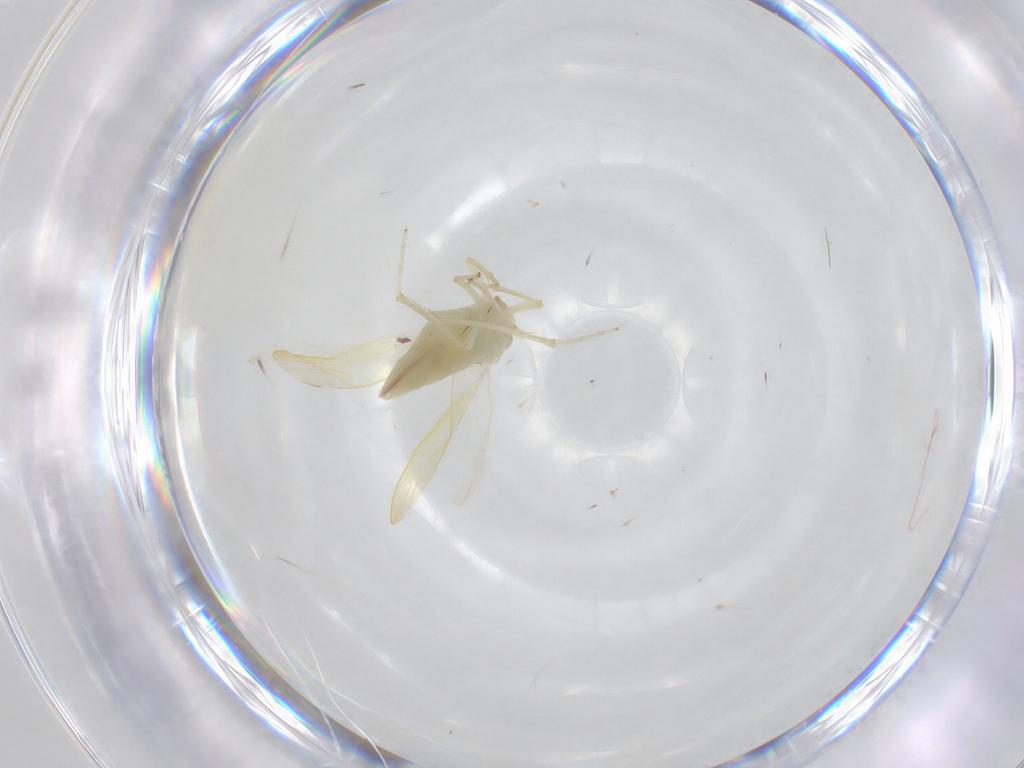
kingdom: Animalia
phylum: Arthropoda
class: Insecta
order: Hemiptera
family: Cicadellidae
